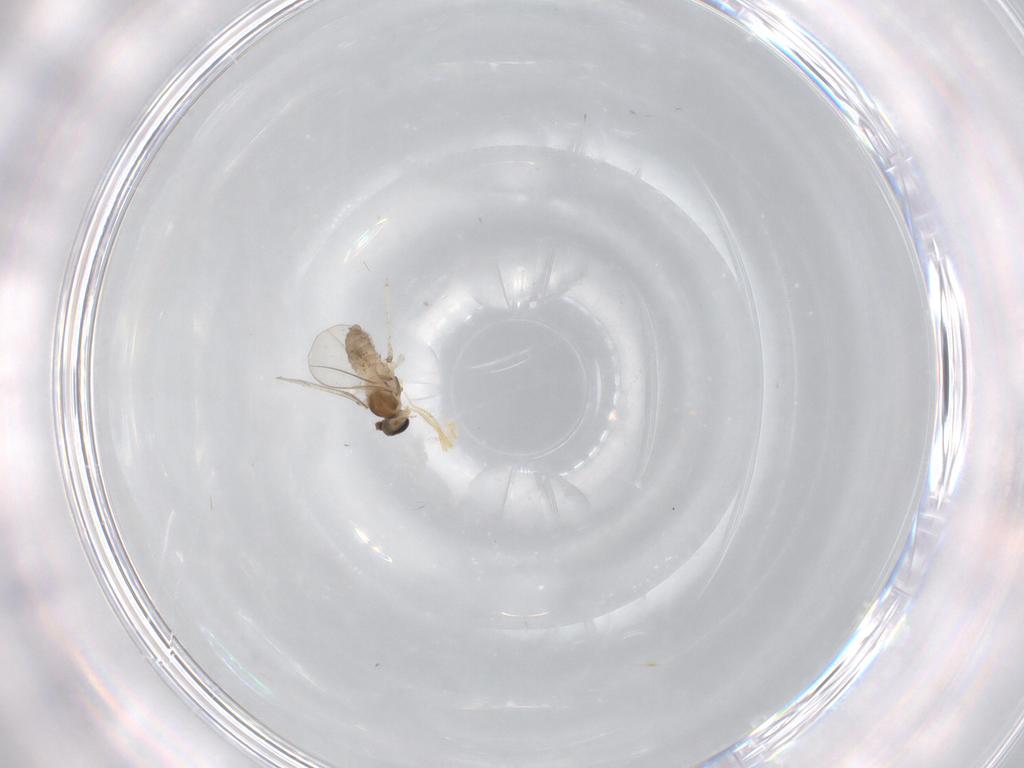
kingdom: Animalia
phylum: Arthropoda
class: Insecta
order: Diptera
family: Cecidomyiidae
